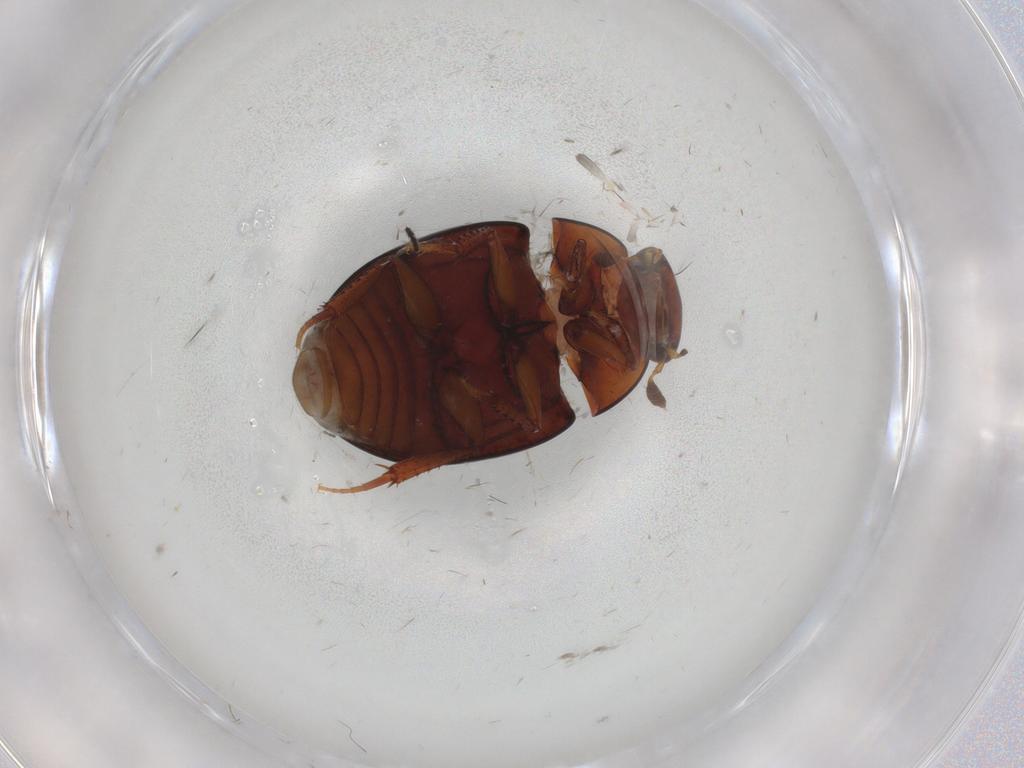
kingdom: Animalia
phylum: Arthropoda
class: Insecta
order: Coleoptera
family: Hydrophilidae
